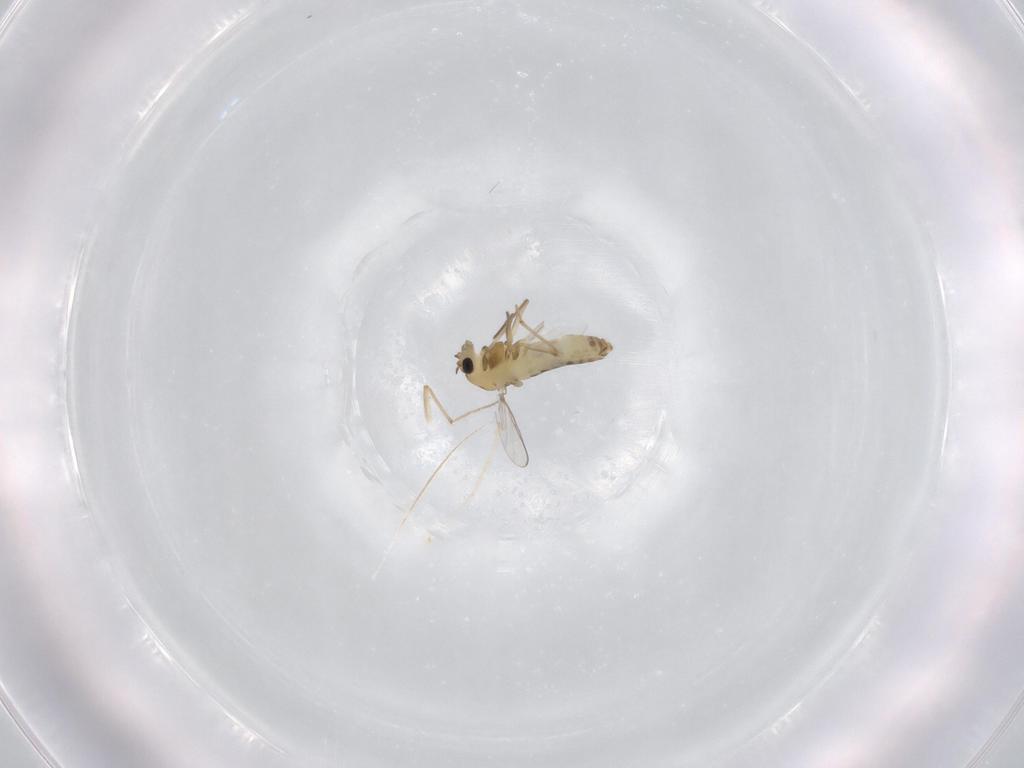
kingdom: Animalia
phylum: Arthropoda
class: Insecta
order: Diptera
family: Chironomidae
